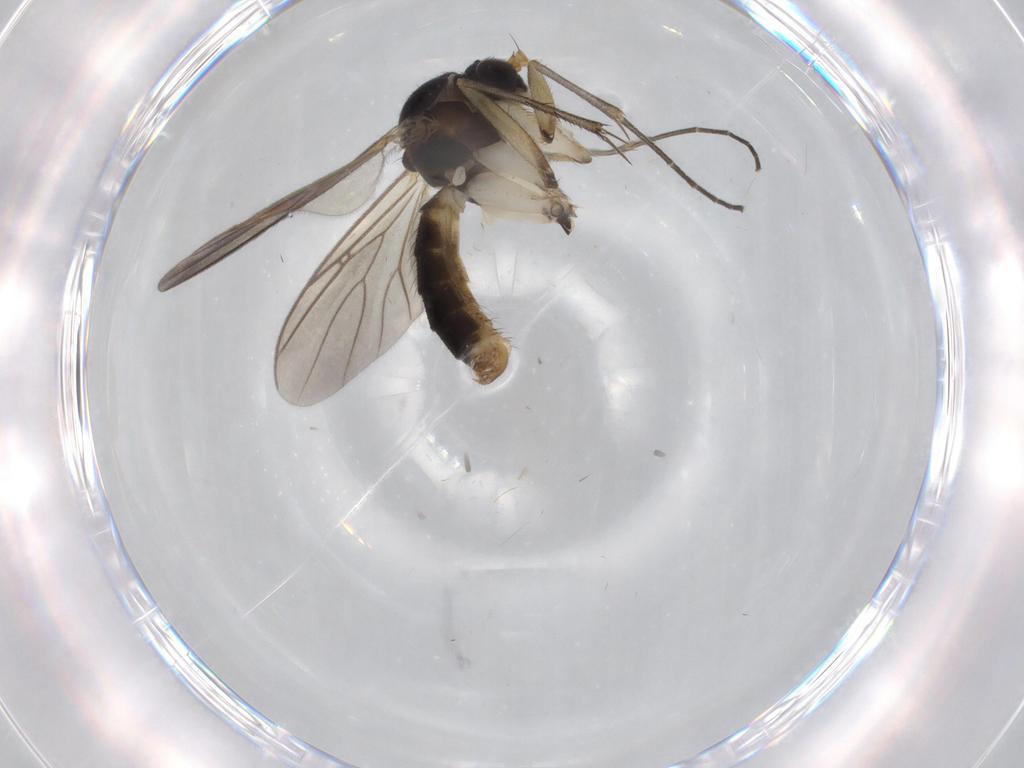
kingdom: Animalia
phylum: Arthropoda
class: Insecta
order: Diptera
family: Mycetophilidae
